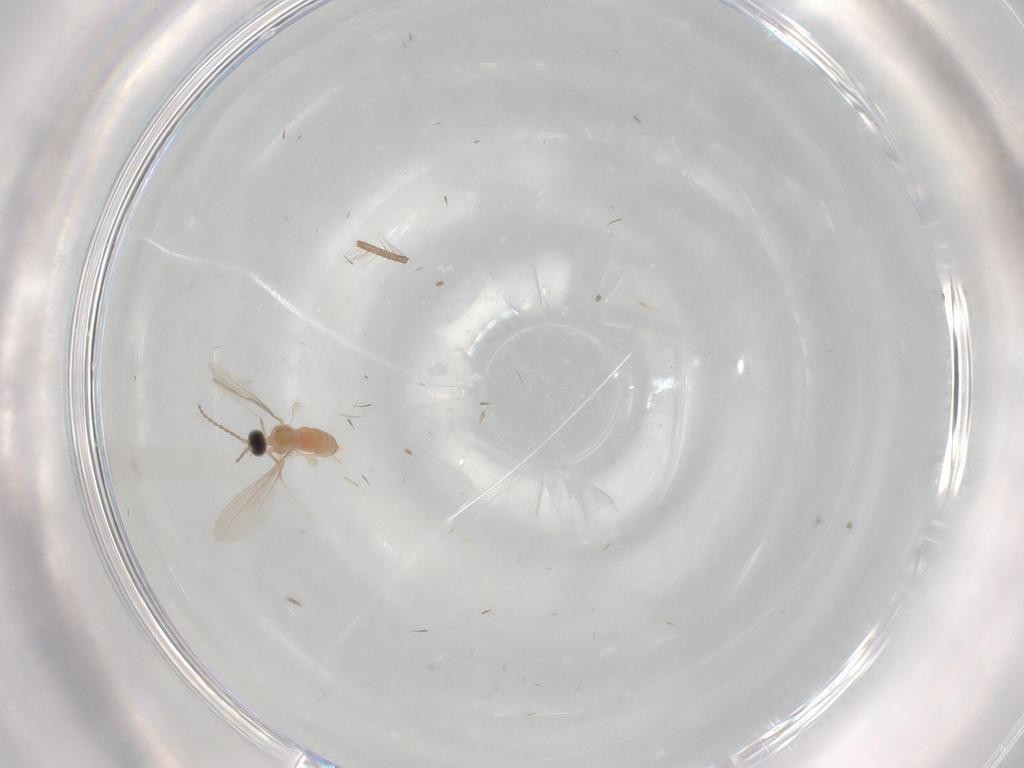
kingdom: Animalia
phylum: Arthropoda
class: Insecta
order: Diptera
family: Cecidomyiidae
